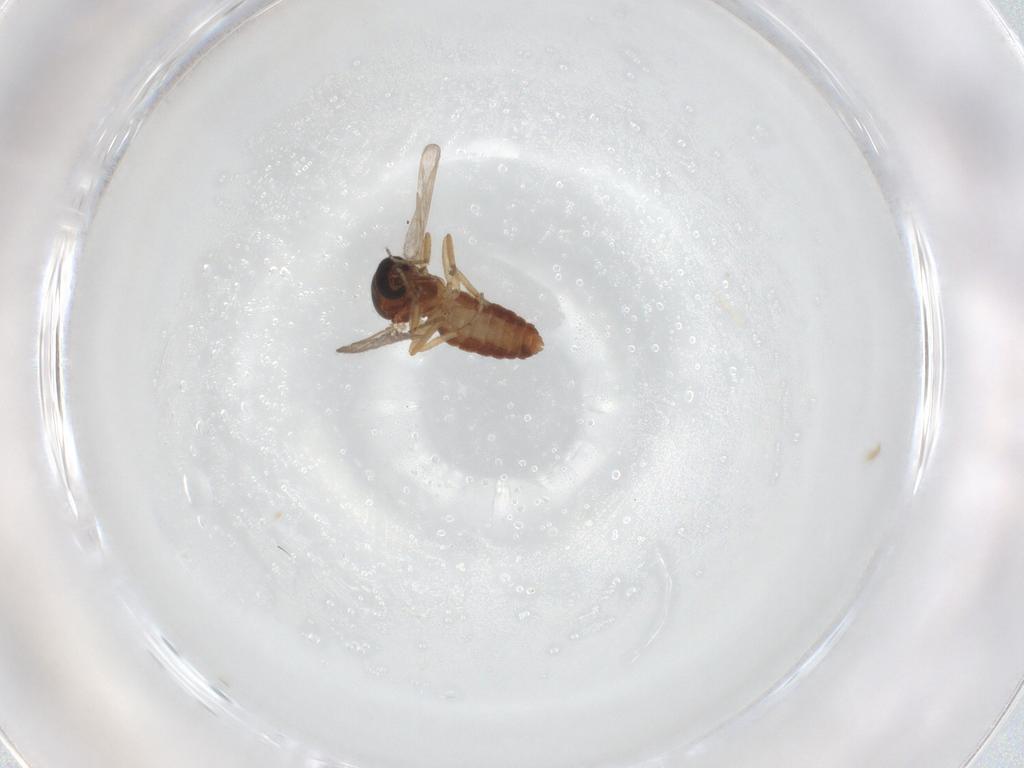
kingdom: Animalia
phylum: Arthropoda
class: Insecta
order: Diptera
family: Ceratopogonidae
